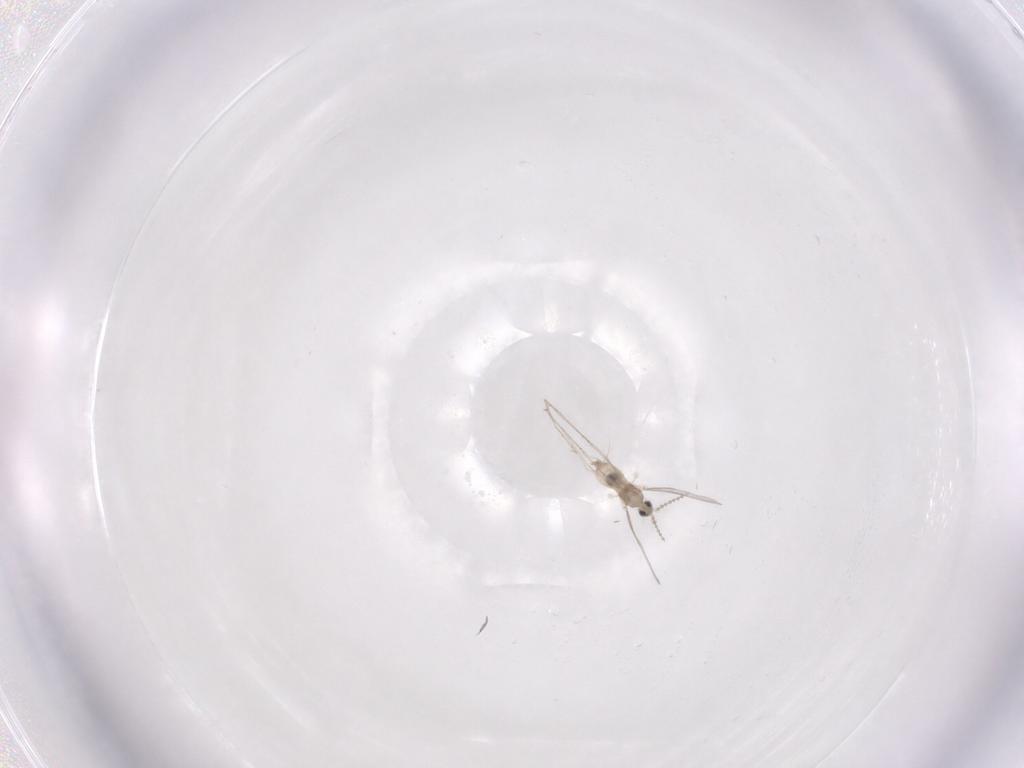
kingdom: Animalia
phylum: Arthropoda
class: Insecta
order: Diptera
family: Cecidomyiidae
